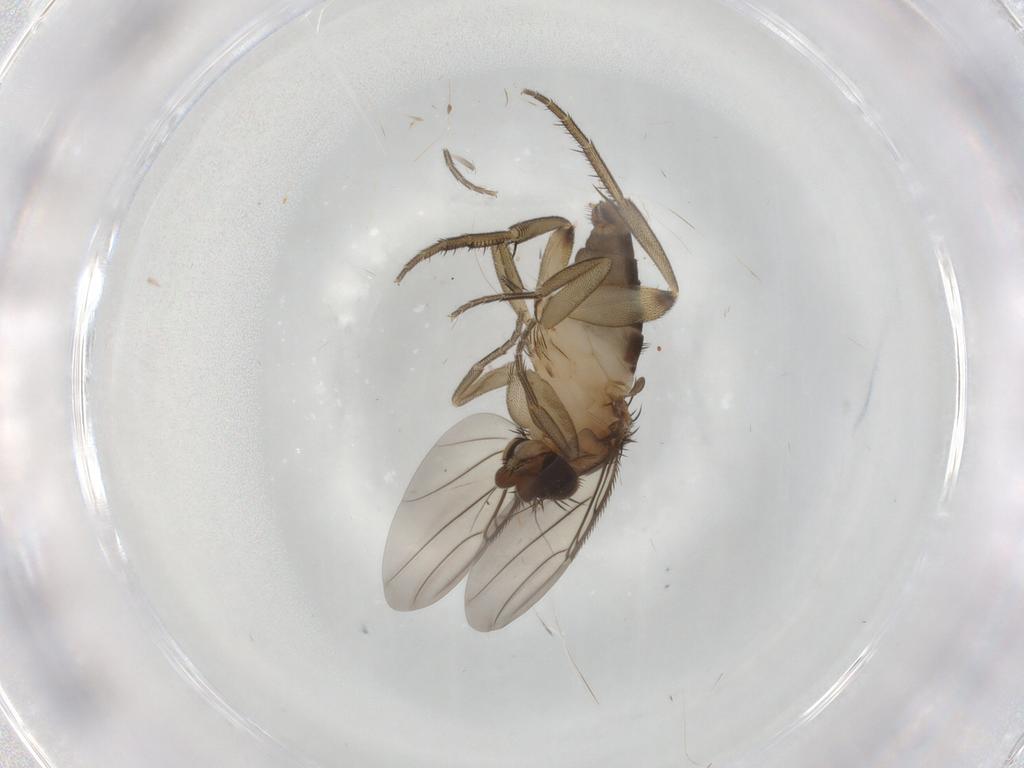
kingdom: Animalia
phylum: Arthropoda
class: Insecta
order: Diptera
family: Phoridae
